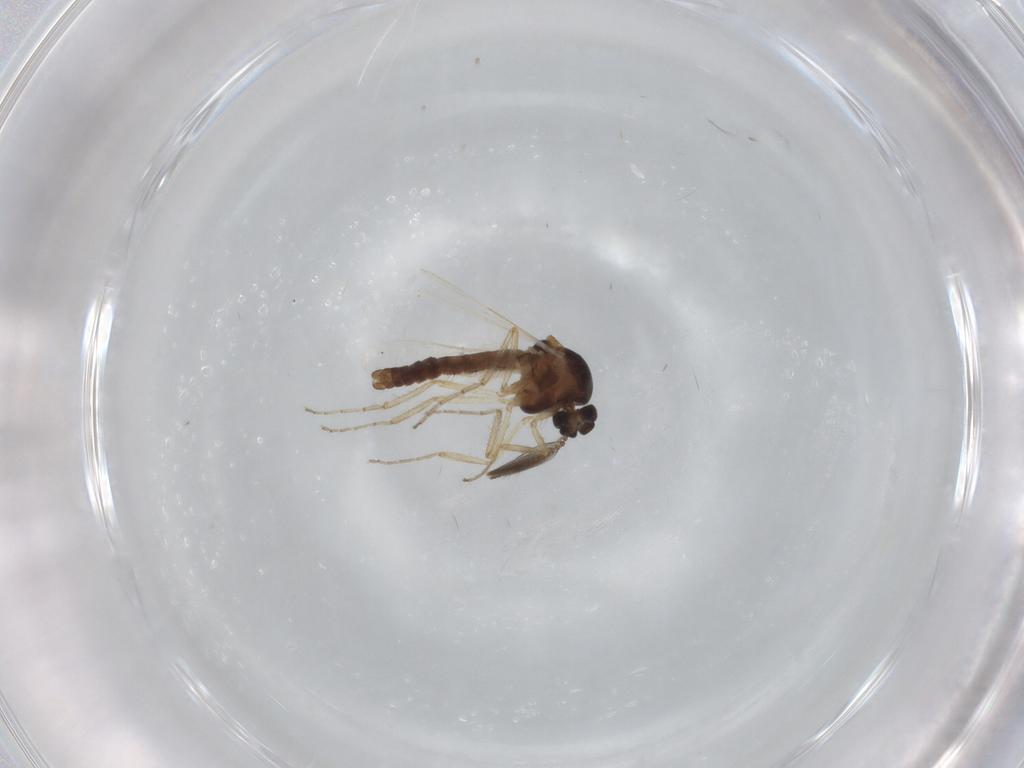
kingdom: Animalia
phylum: Arthropoda
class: Insecta
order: Diptera
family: Ceratopogonidae
